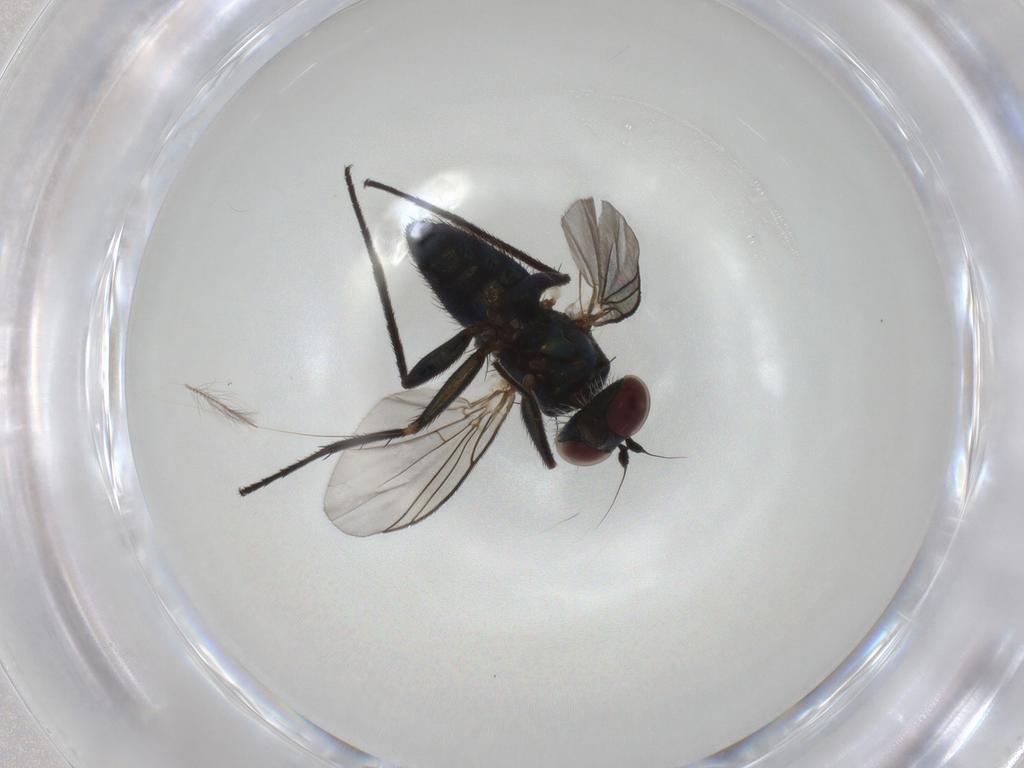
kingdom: Animalia
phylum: Arthropoda
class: Insecta
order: Diptera
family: Dolichopodidae
